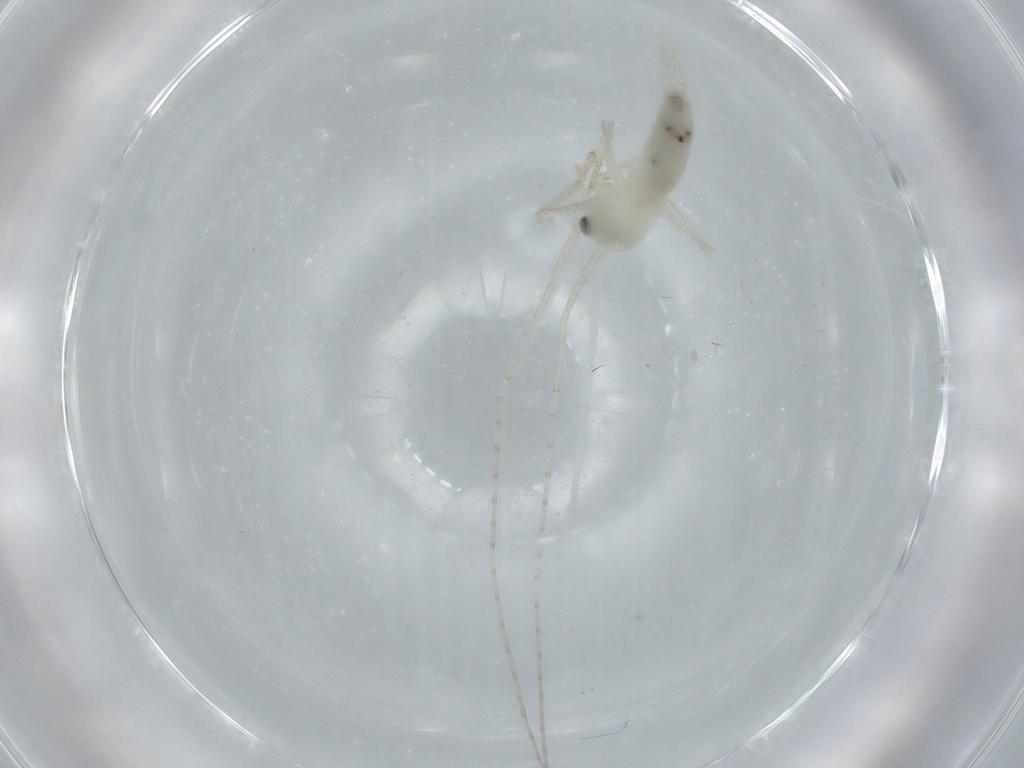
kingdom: Animalia
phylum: Arthropoda
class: Insecta
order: Orthoptera
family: Trigonidiidae
